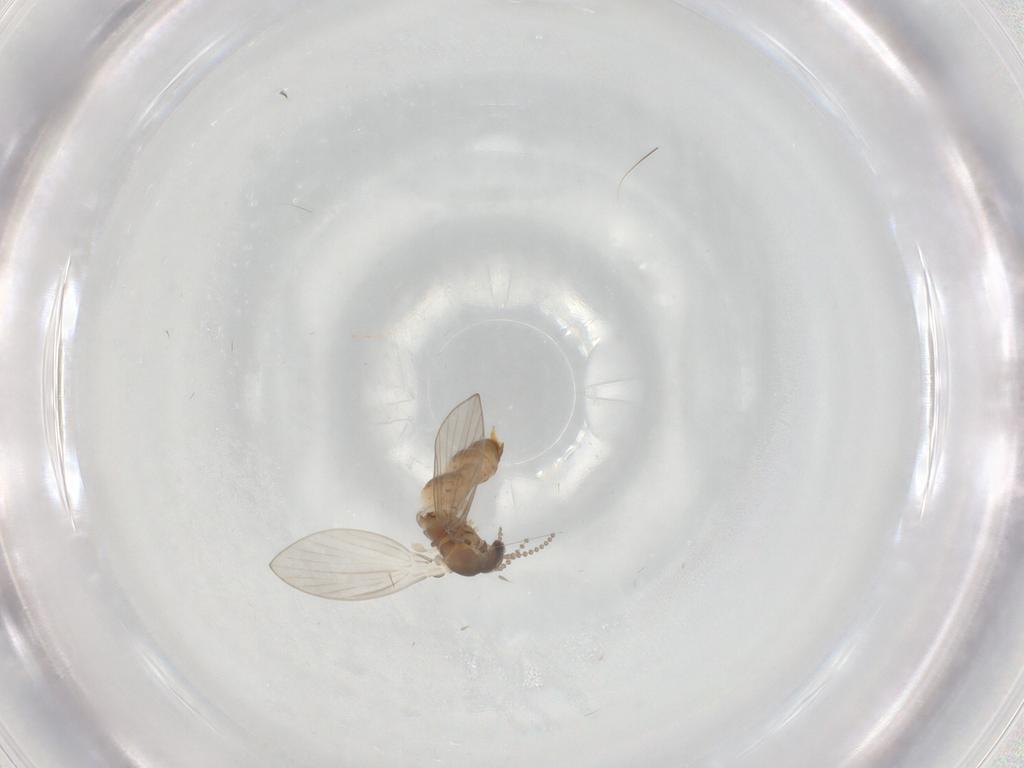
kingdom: Animalia
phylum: Arthropoda
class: Insecta
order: Diptera
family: Psychodidae
